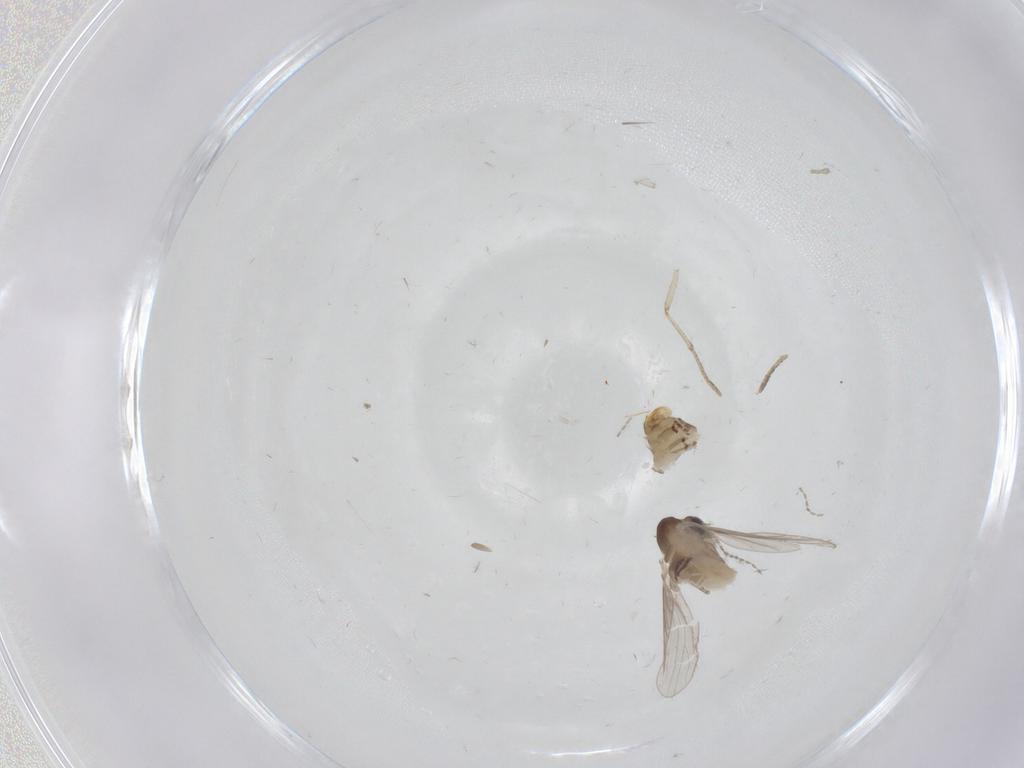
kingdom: Animalia
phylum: Arthropoda
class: Insecta
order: Diptera
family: Psychodidae
